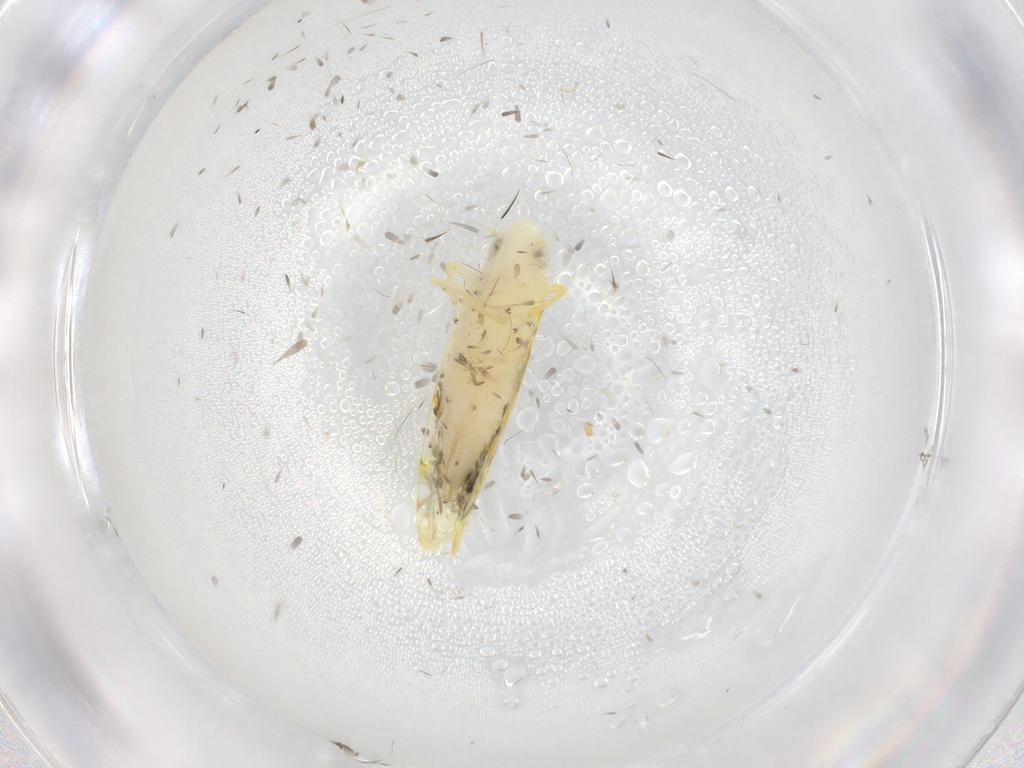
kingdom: Animalia
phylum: Arthropoda
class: Insecta
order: Hemiptera
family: Cicadellidae
